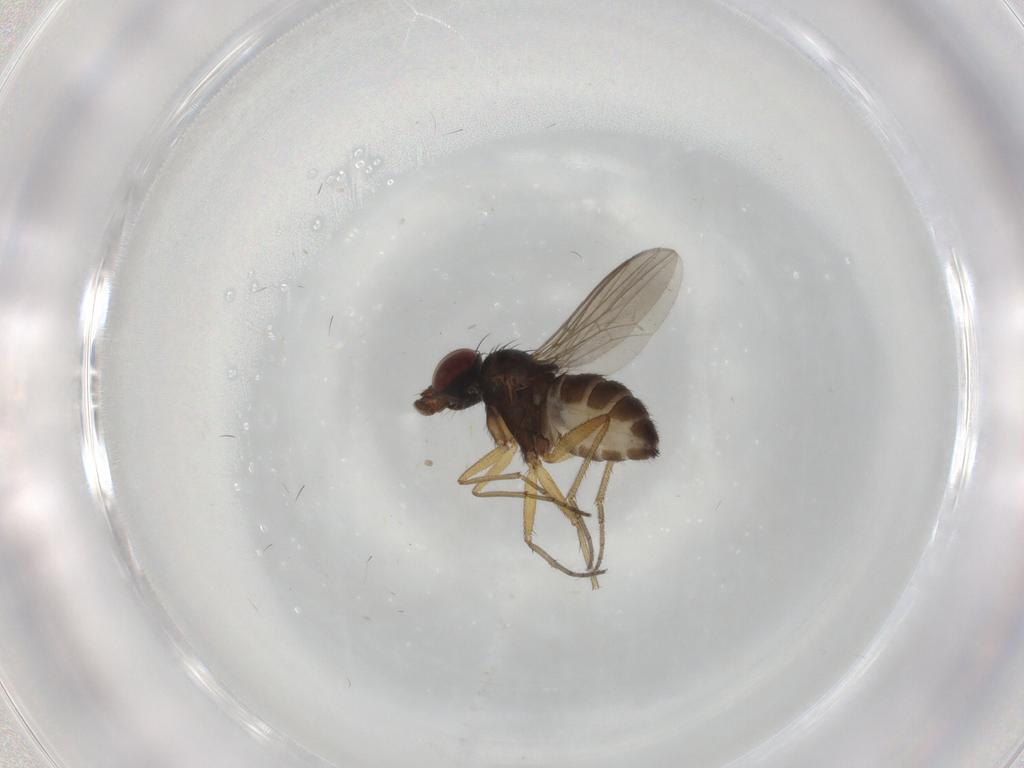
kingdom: Animalia
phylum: Arthropoda
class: Insecta
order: Diptera
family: Dolichopodidae
